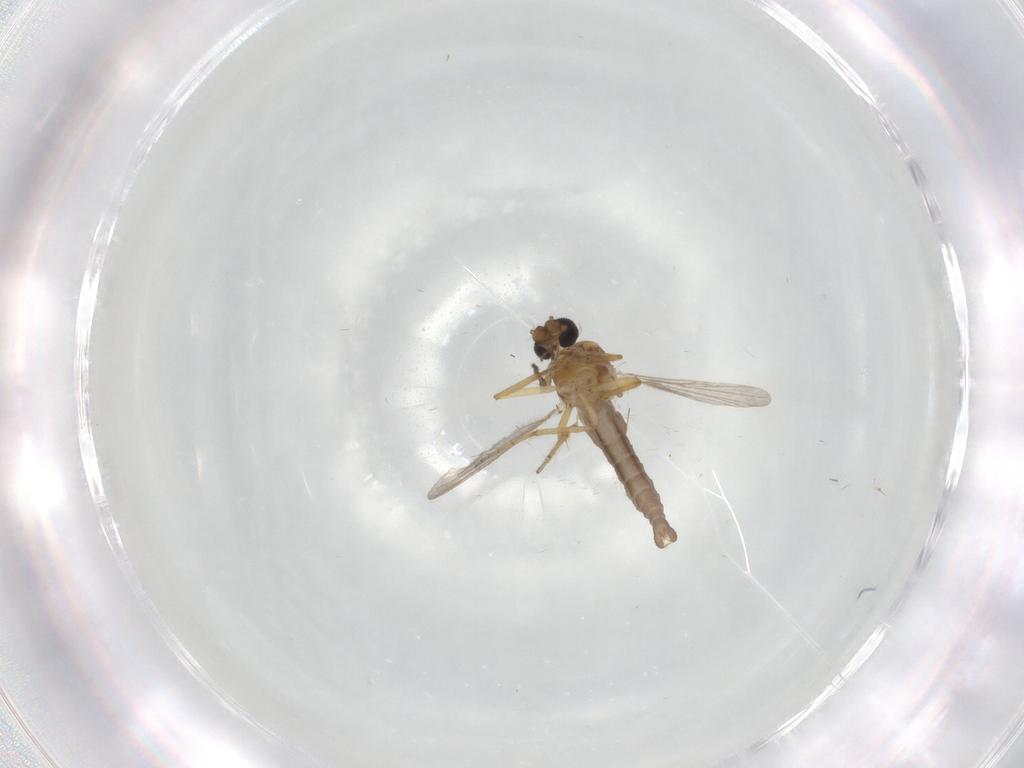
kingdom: Animalia
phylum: Arthropoda
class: Insecta
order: Diptera
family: Ceratopogonidae
